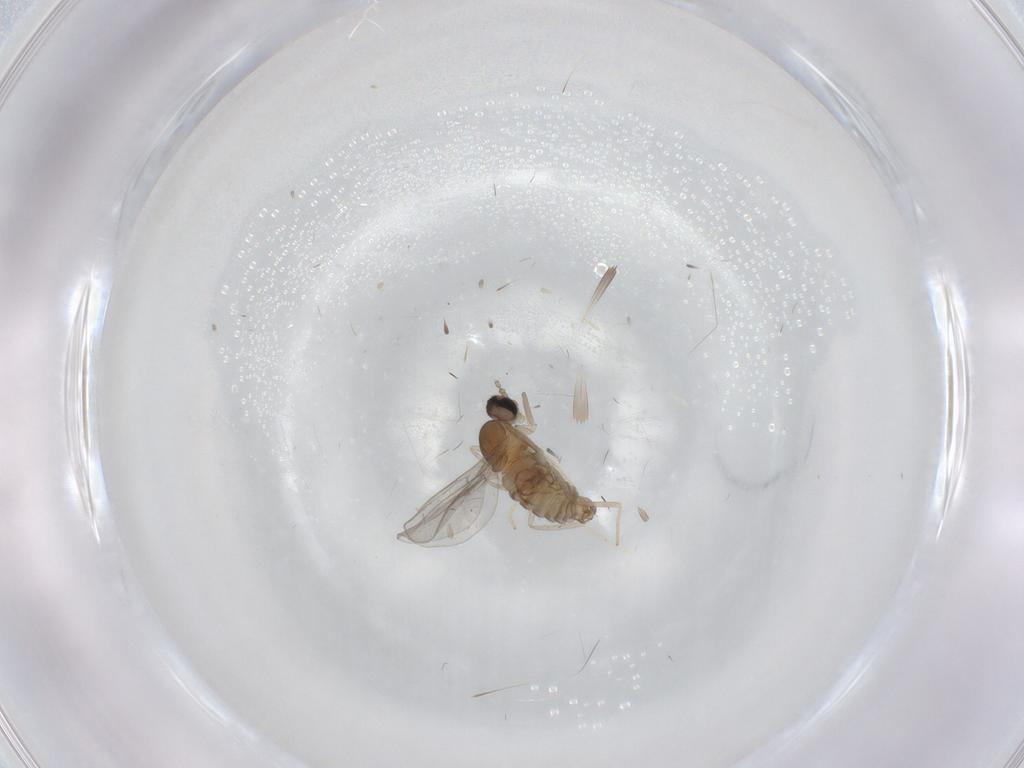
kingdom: Animalia
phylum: Arthropoda
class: Insecta
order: Diptera
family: Cecidomyiidae
